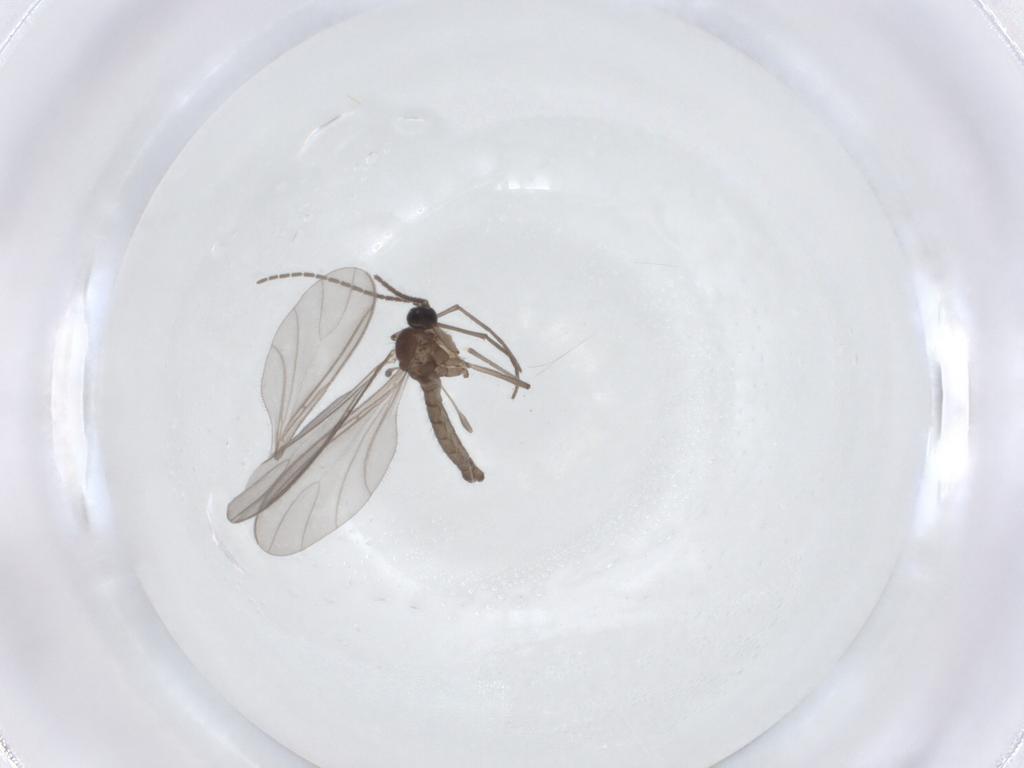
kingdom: Animalia
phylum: Arthropoda
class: Insecta
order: Diptera
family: Sciaridae
